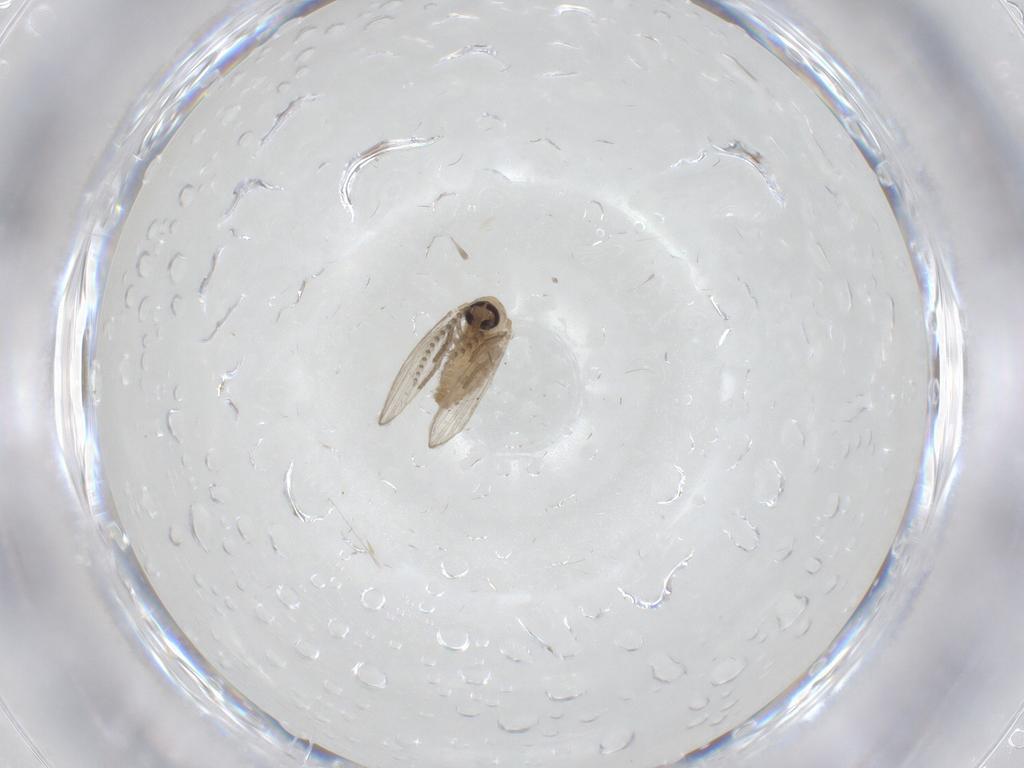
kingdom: Animalia
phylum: Arthropoda
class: Insecta
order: Diptera
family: Psychodidae
